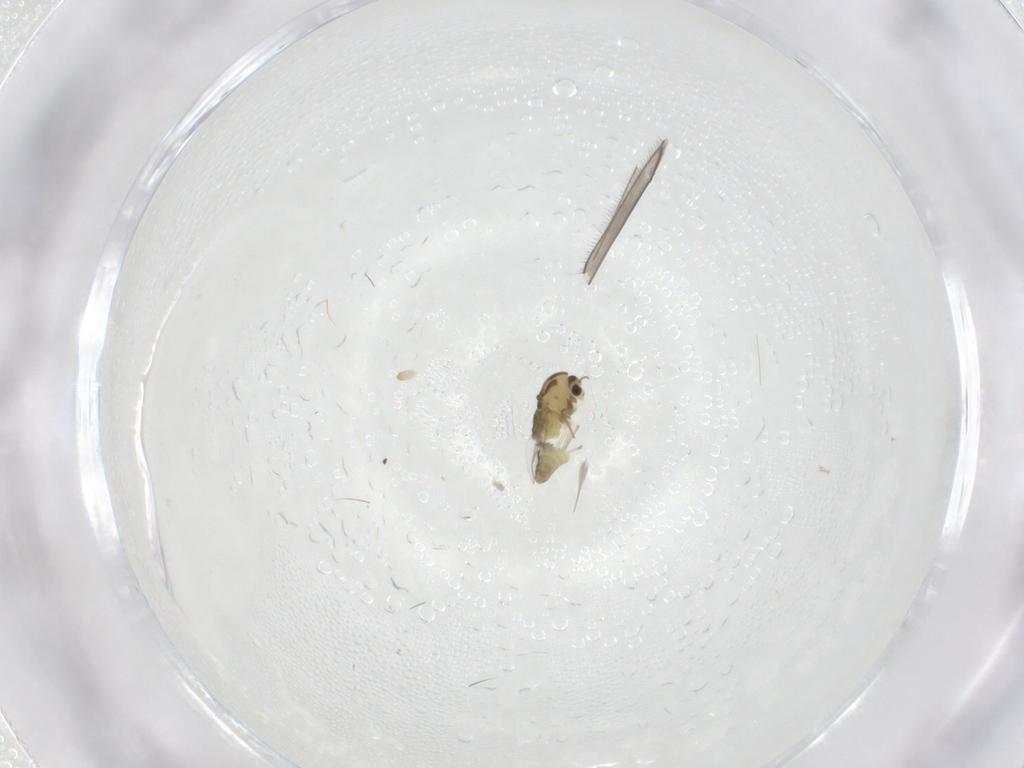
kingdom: Animalia
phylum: Arthropoda
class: Insecta
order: Diptera
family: Chironomidae
